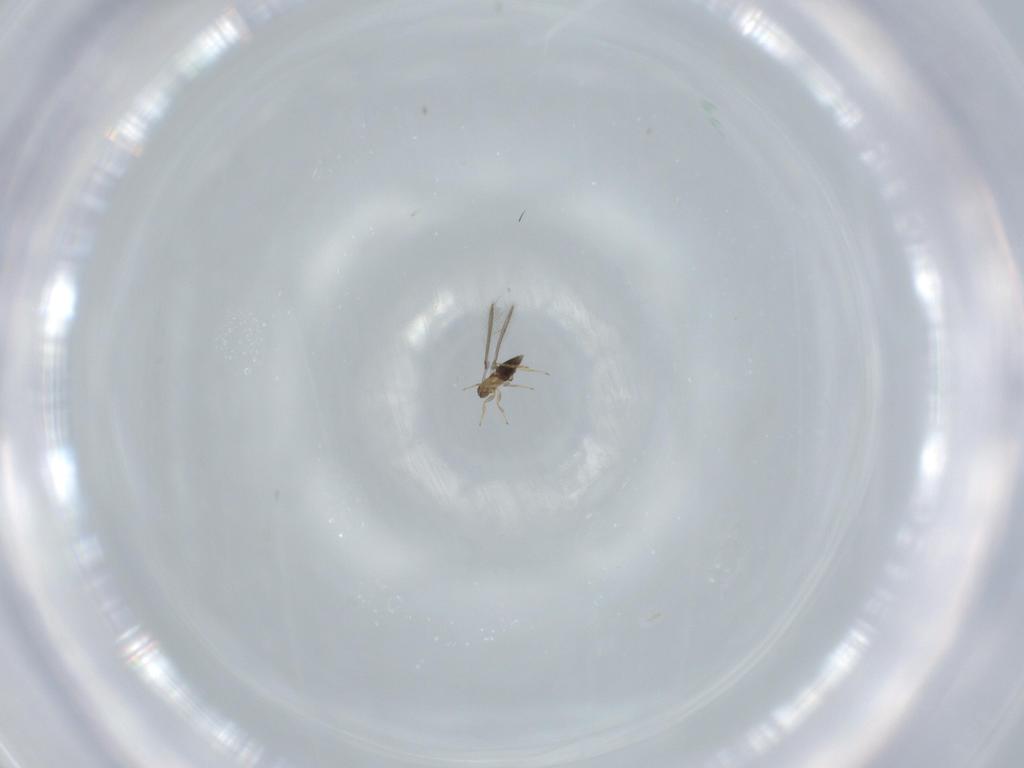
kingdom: Animalia
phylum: Arthropoda
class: Insecta
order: Hymenoptera
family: Mymaridae
